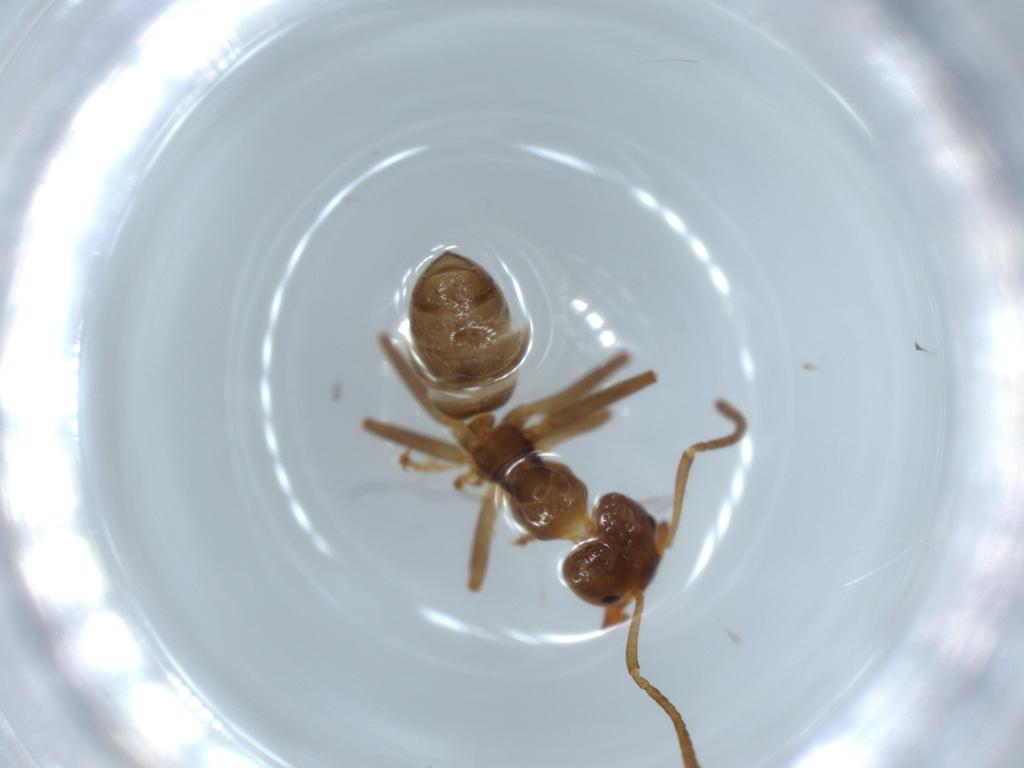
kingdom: Animalia
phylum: Arthropoda
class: Insecta
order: Hymenoptera
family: Formicidae
